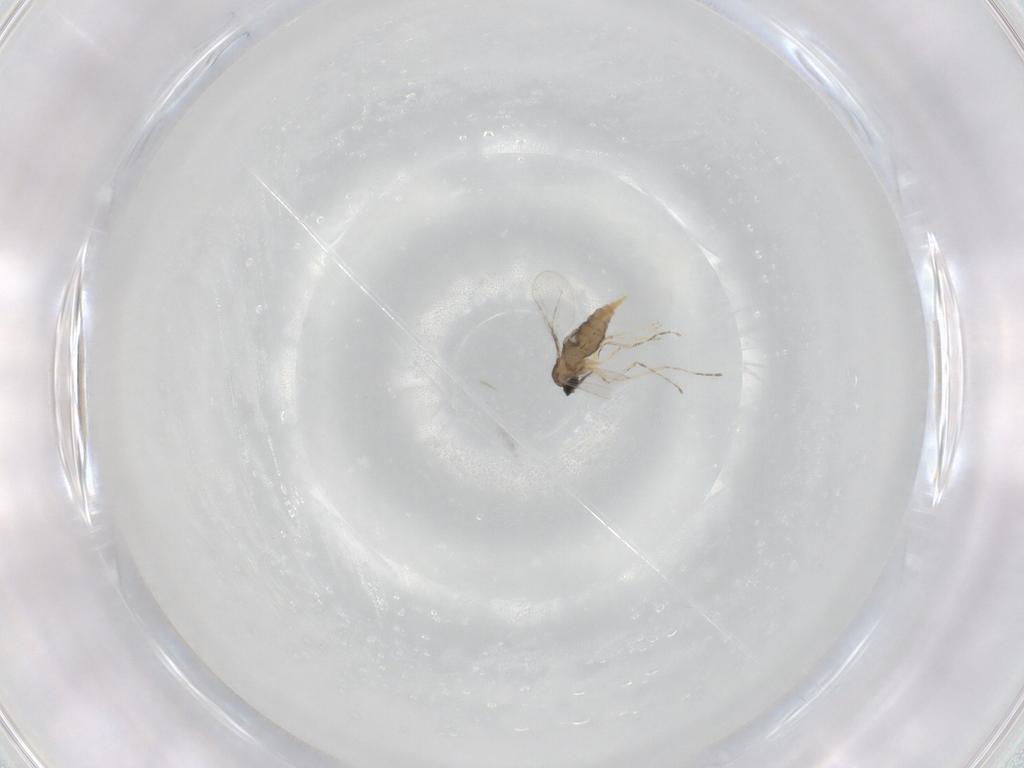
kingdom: Animalia
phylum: Arthropoda
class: Insecta
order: Diptera
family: Cecidomyiidae
